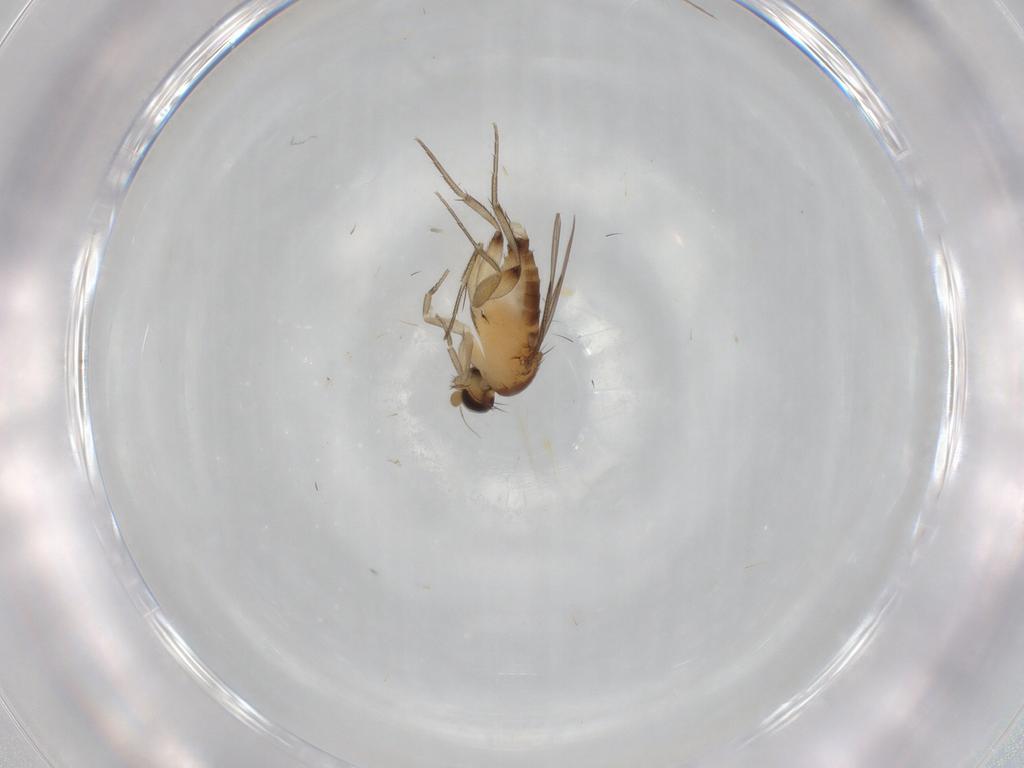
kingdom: Animalia
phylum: Arthropoda
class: Insecta
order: Diptera
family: Phoridae
